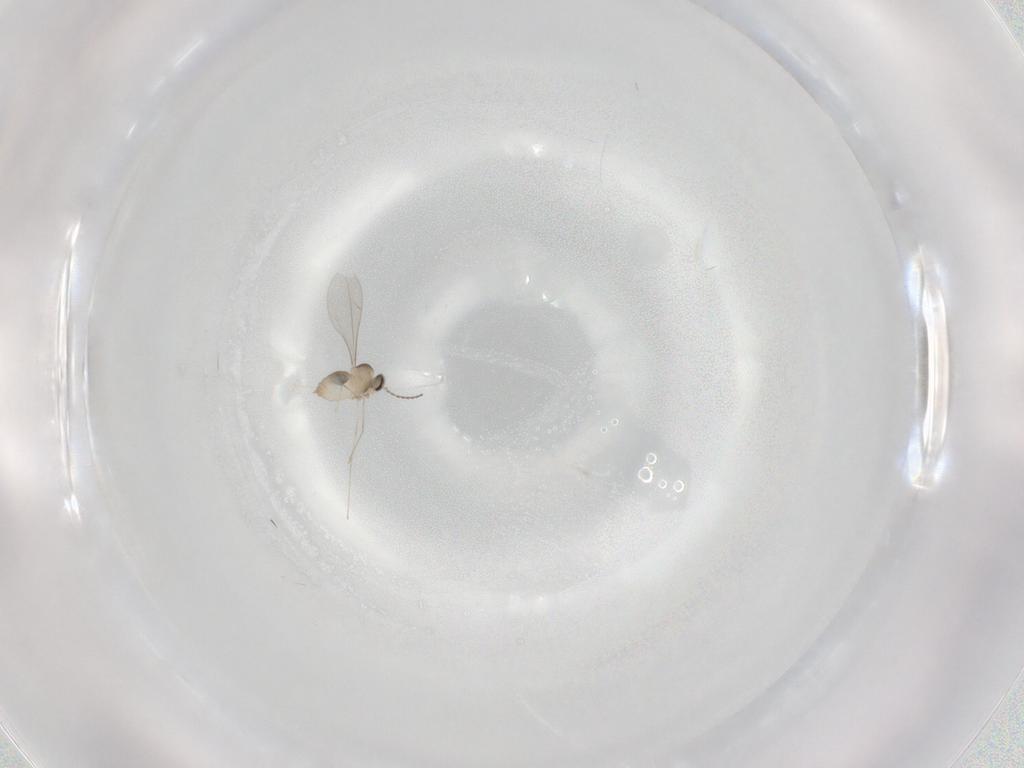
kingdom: Animalia
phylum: Arthropoda
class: Insecta
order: Diptera
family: Cecidomyiidae
